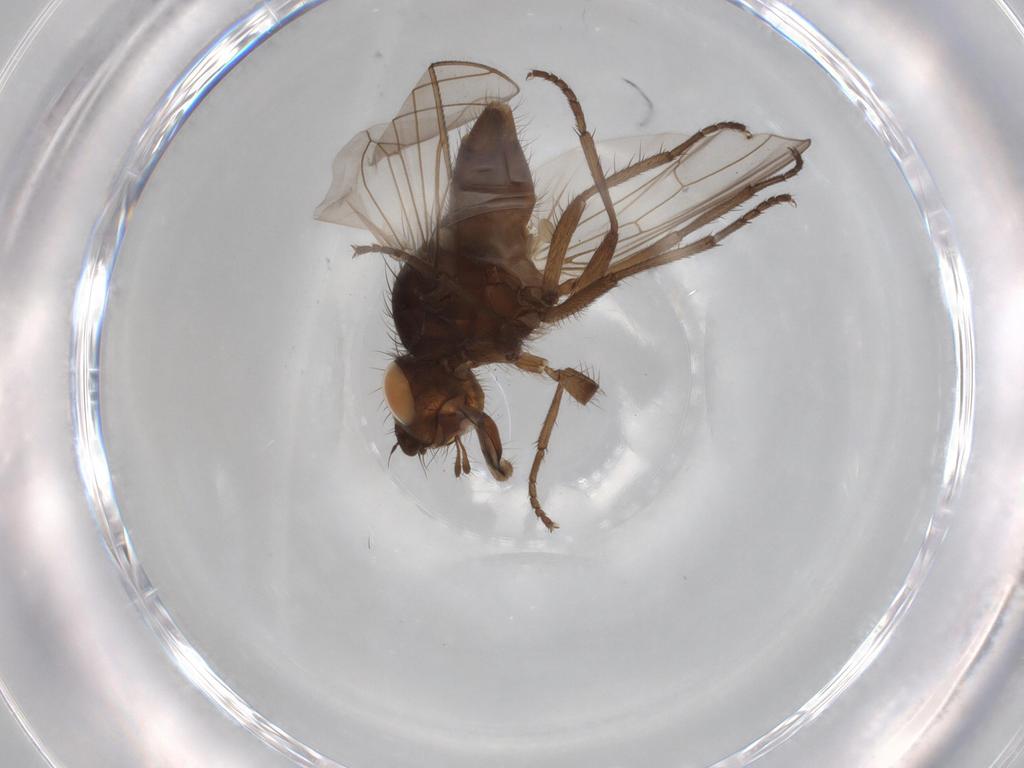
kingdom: Animalia
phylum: Arthropoda
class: Insecta
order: Diptera
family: Anthomyiidae
